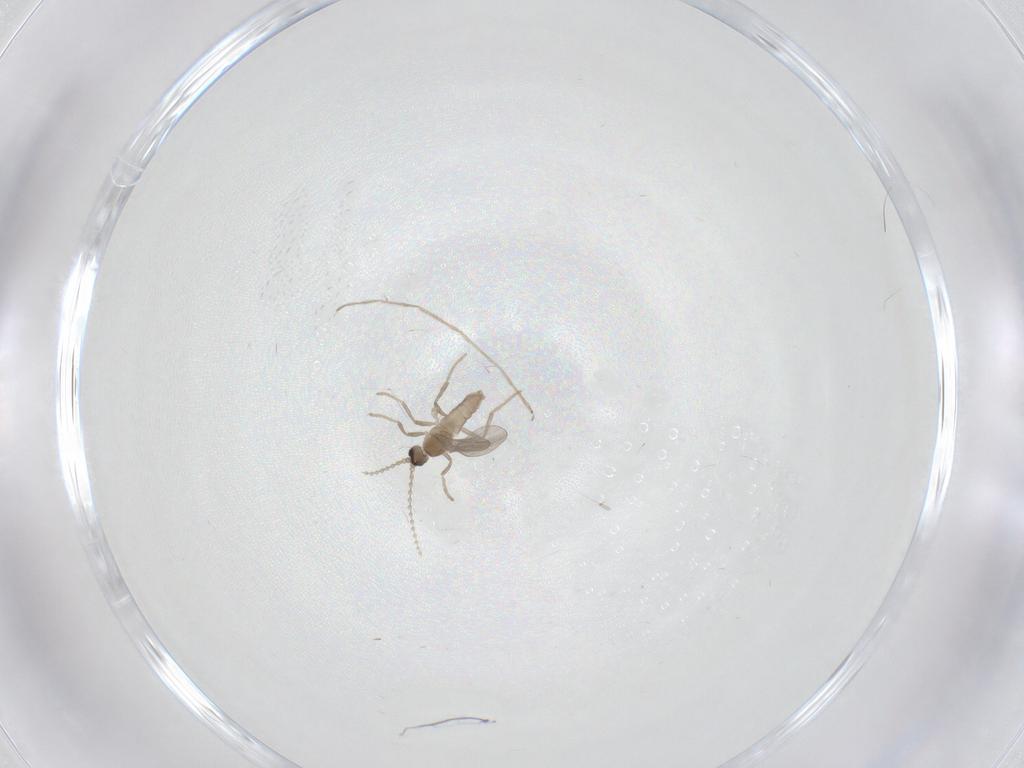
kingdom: Animalia
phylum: Arthropoda
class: Insecta
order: Diptera
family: Cecidomyiidae
